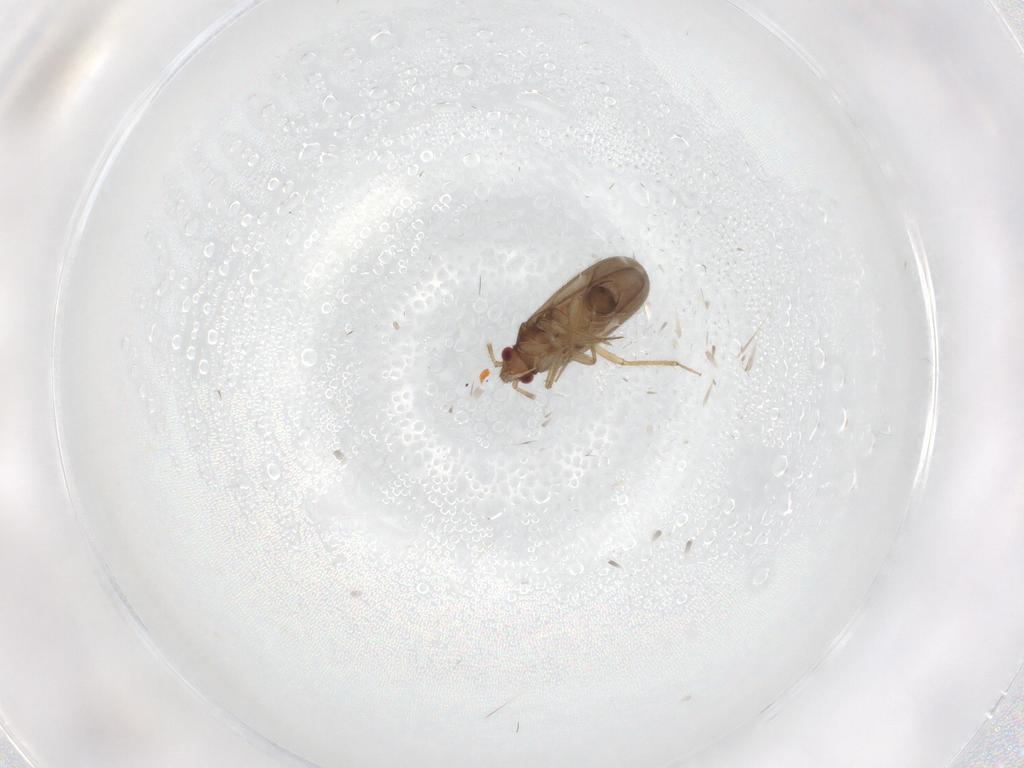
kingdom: Animalia
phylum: Arthropoda
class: Insecta
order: Hemiptera
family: Ceratocombidae
